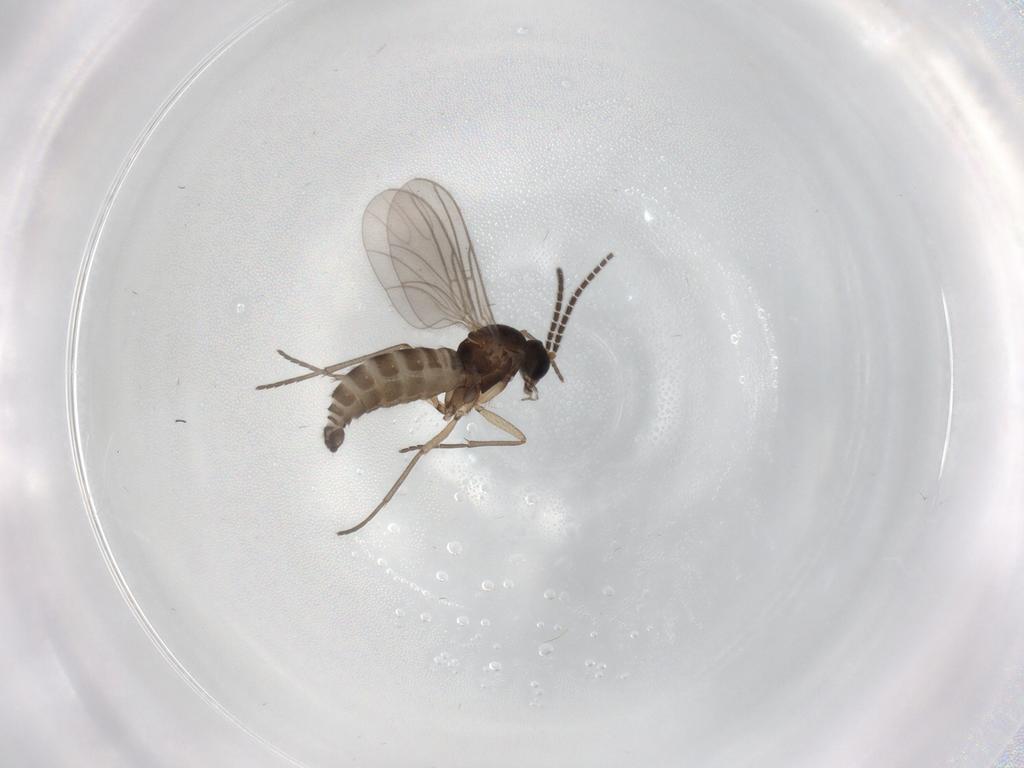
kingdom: Animalia
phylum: Arthropoda
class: Insecta
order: Diptera
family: Sciaridae
